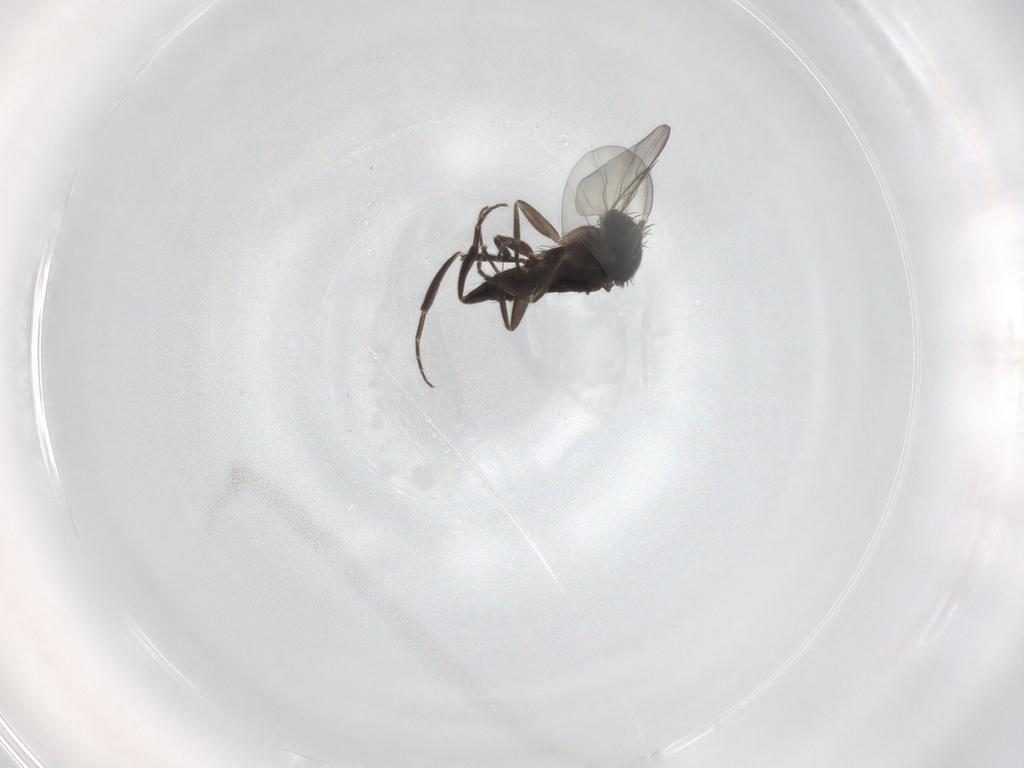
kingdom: Animalia
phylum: Arthropoda
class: Insecta
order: Diptera
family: Phoridae
